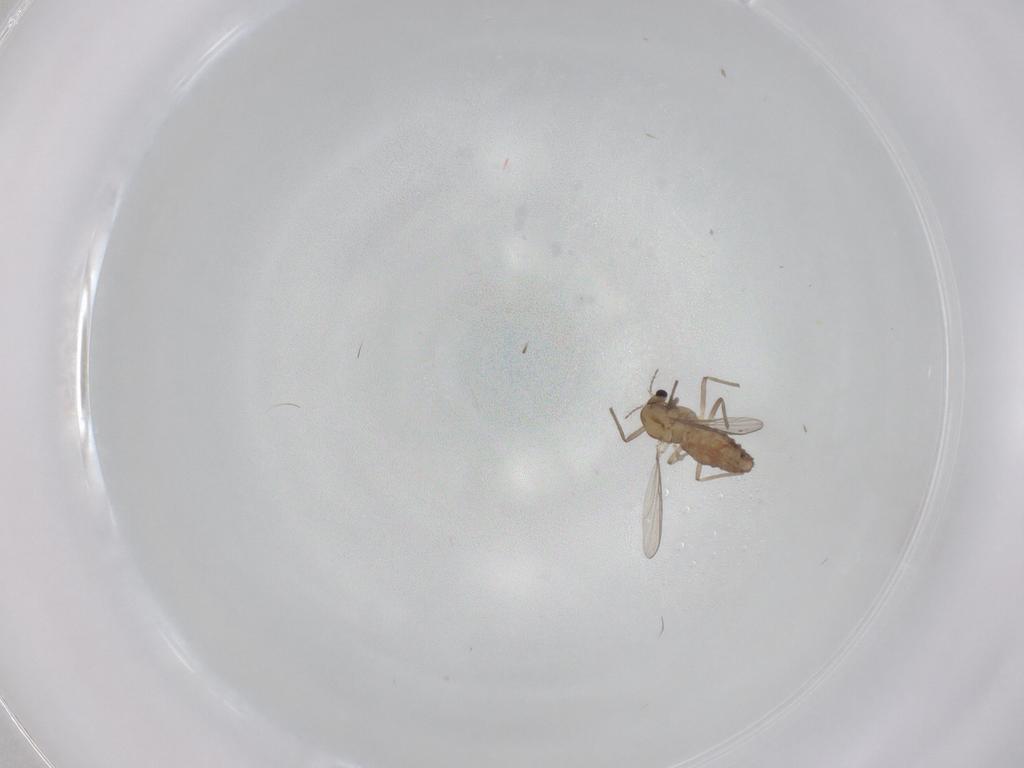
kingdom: Animalia
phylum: Arthropoda
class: Insecta
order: Diptera
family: Chironomidae
